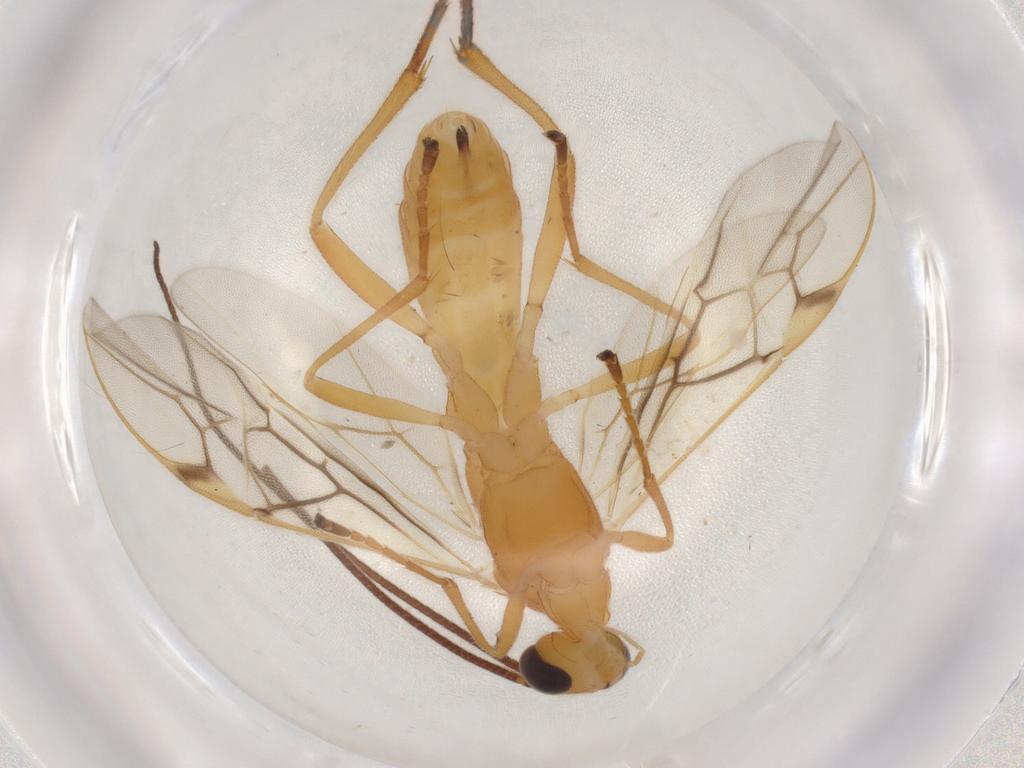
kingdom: Animalia
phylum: Arthropoda
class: Insecta
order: Hymenoptera
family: Braconidae
